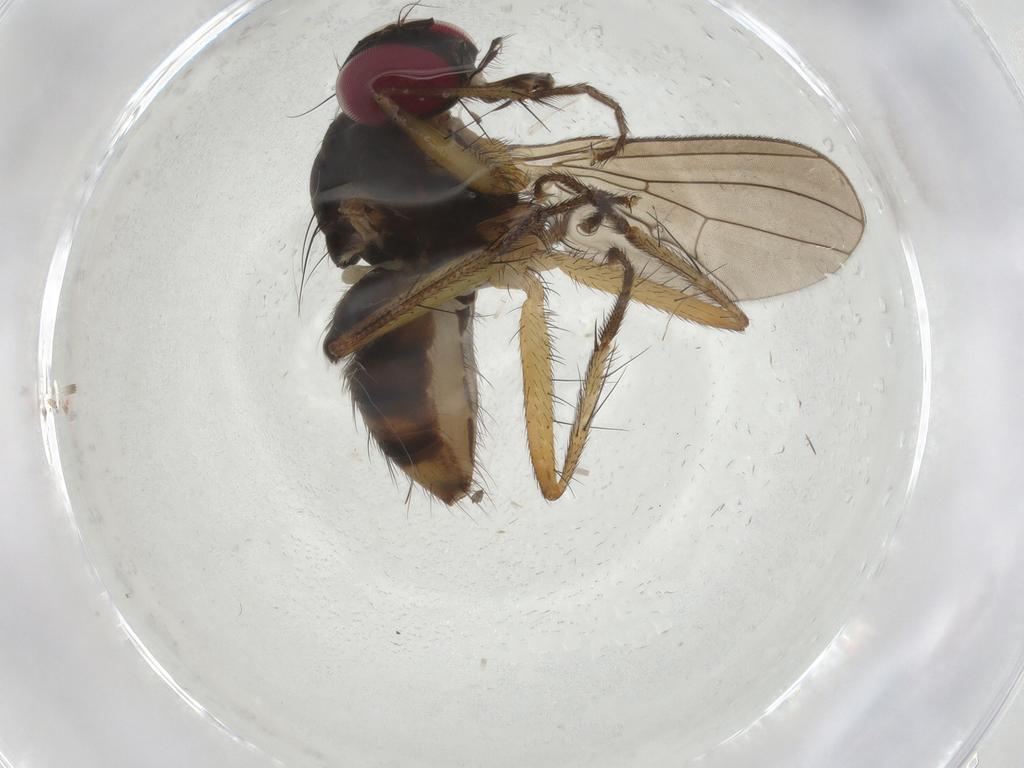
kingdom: Animalia
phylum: Arthropoda
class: Insecta
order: Diptera
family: Anthomyiidae
